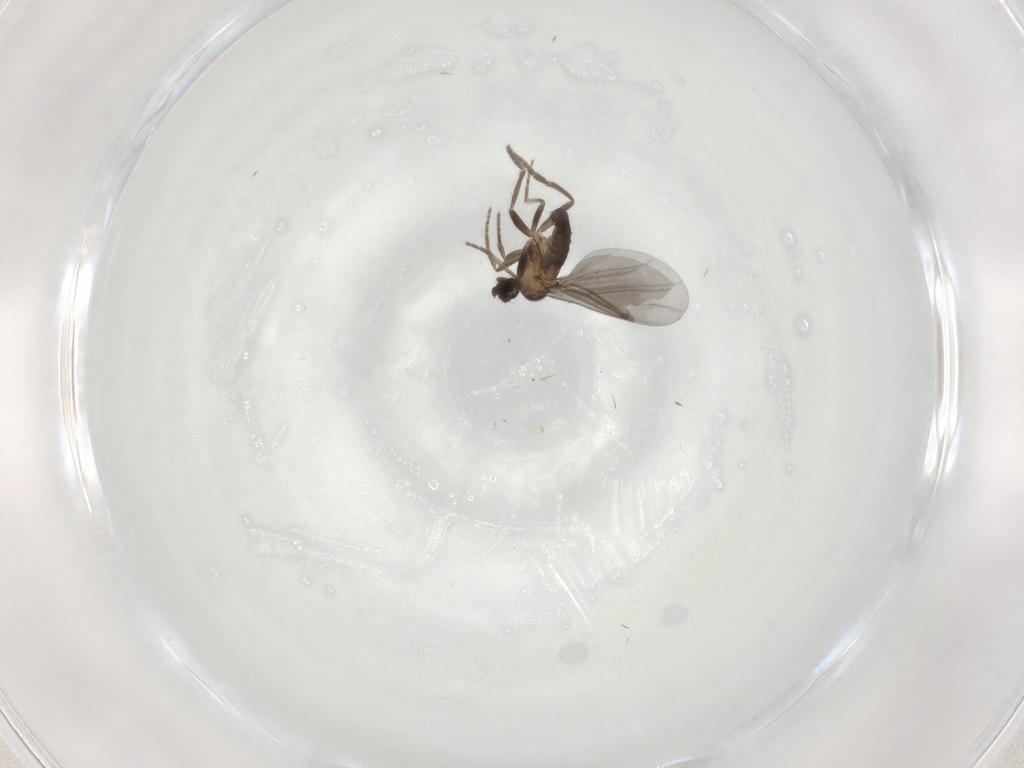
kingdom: Animalia
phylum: Arthropoda
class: Insecta
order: Diptera
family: Phoridae
